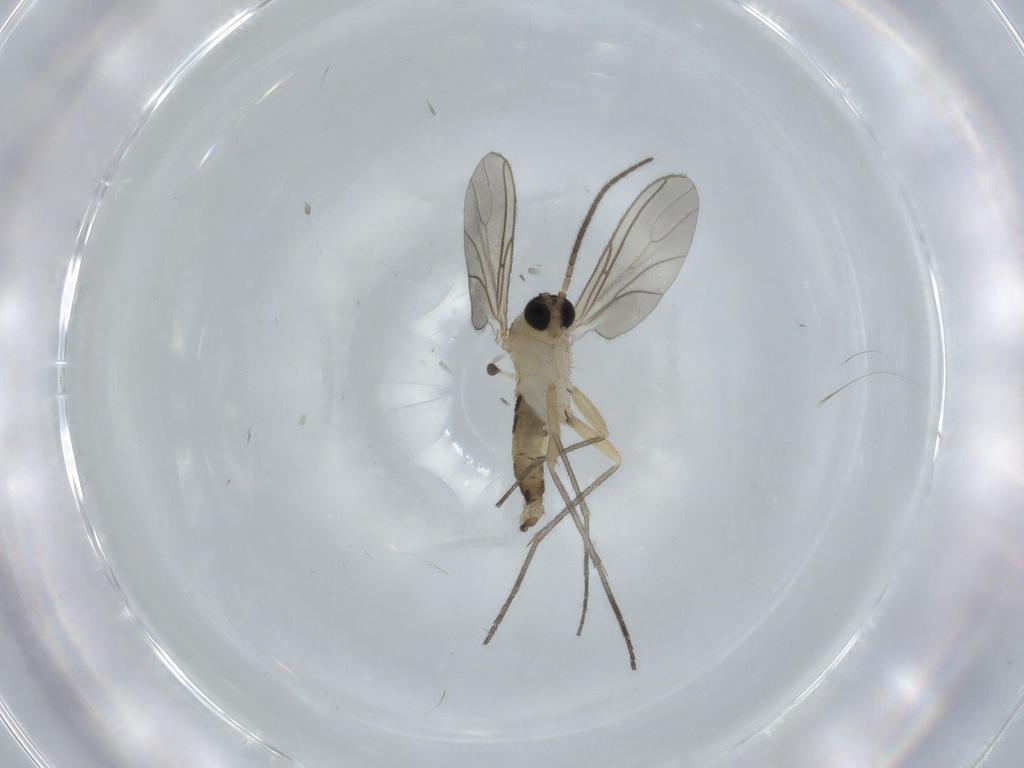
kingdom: Animalia
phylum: Arthropoda
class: Insecta
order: Diptera
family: Sciaridae
